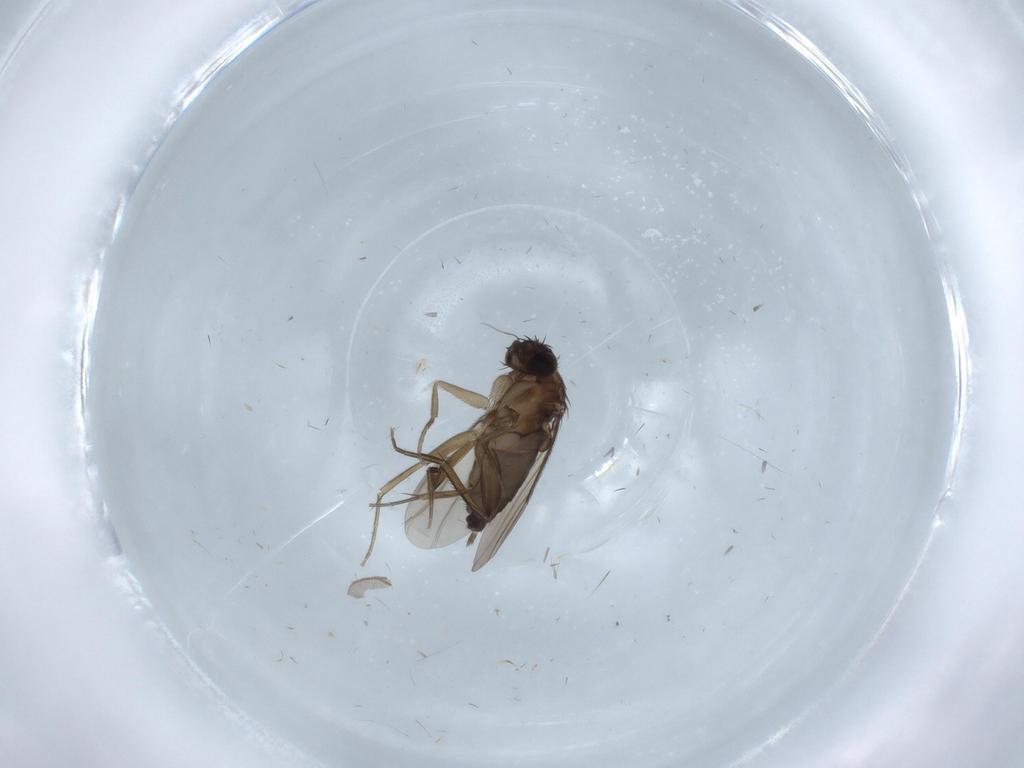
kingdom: Animalia
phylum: Arthropoda
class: Insecta
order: Diptera
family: Phoridae
